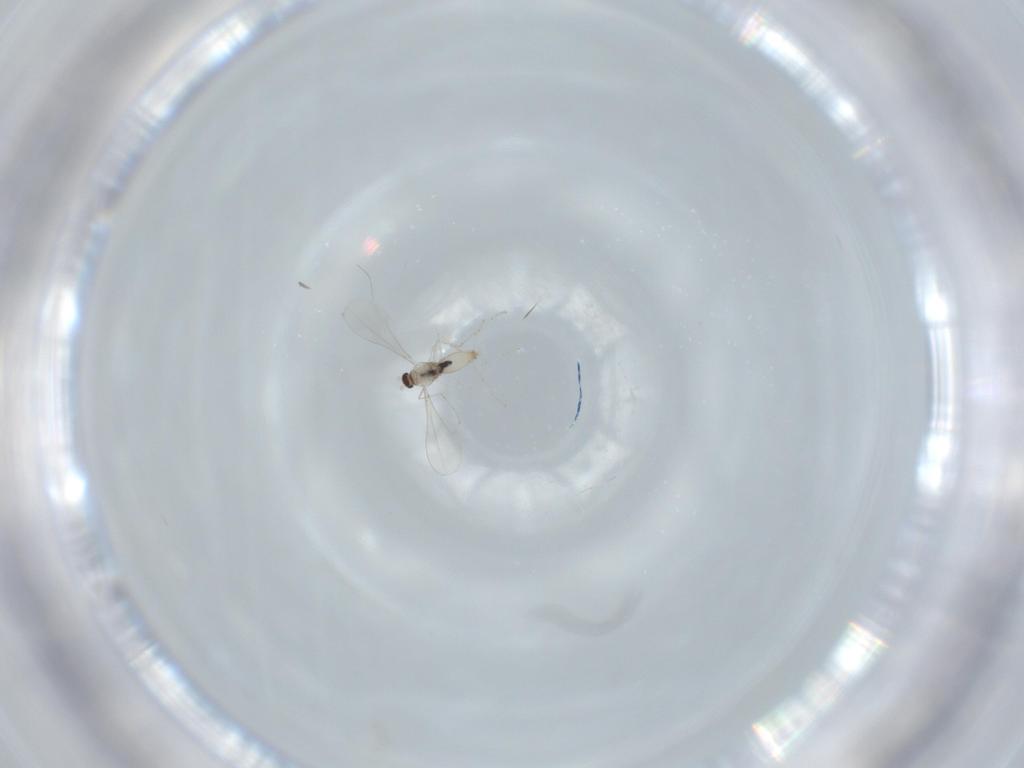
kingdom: Animalia
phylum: Arthropoda
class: Insecta
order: Diptera
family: Cecidomyiidae
